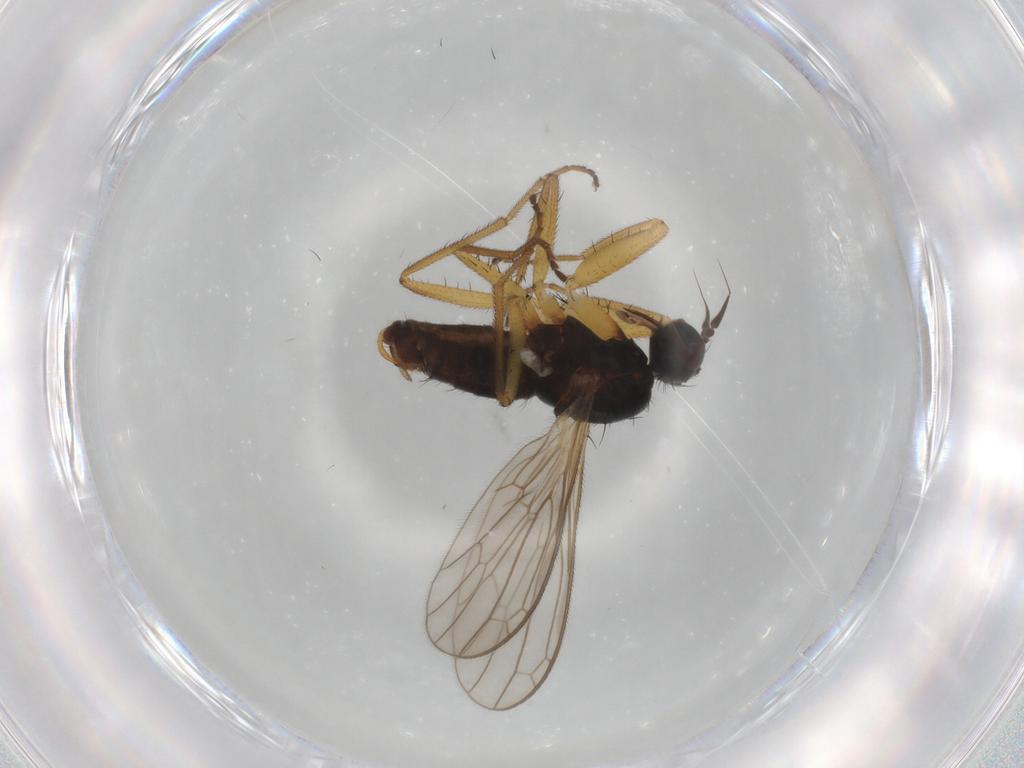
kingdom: Animalia
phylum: Arthropoda
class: Insecta
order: Diptera
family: Sciaridae
